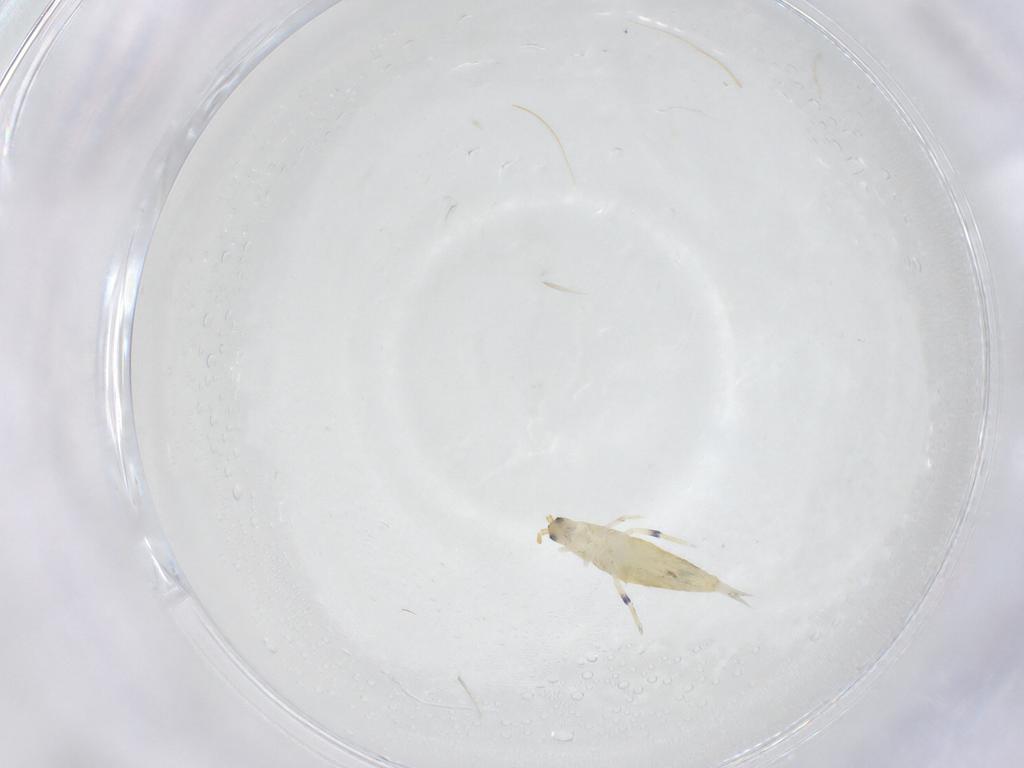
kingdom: Animalia
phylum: Arthropoda
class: Collembola
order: Entomobryomorpha
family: Entomobryidae
